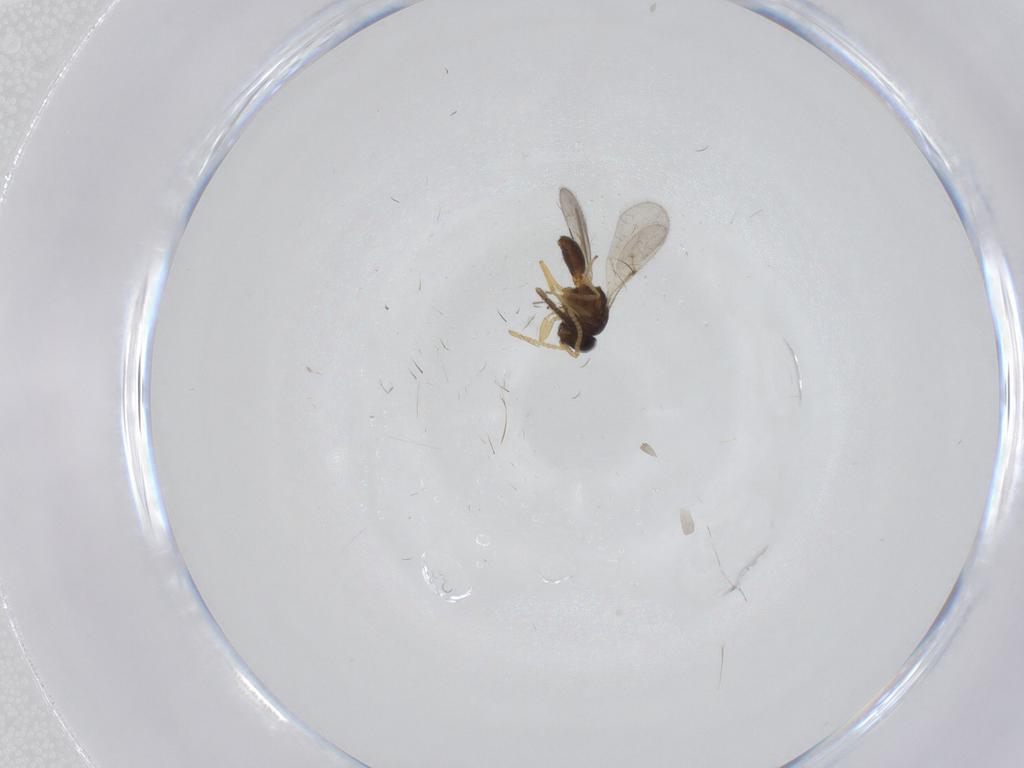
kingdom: Animalia
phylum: Arthropoda
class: Insecta
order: Hymenoptera
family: Scelionidae
